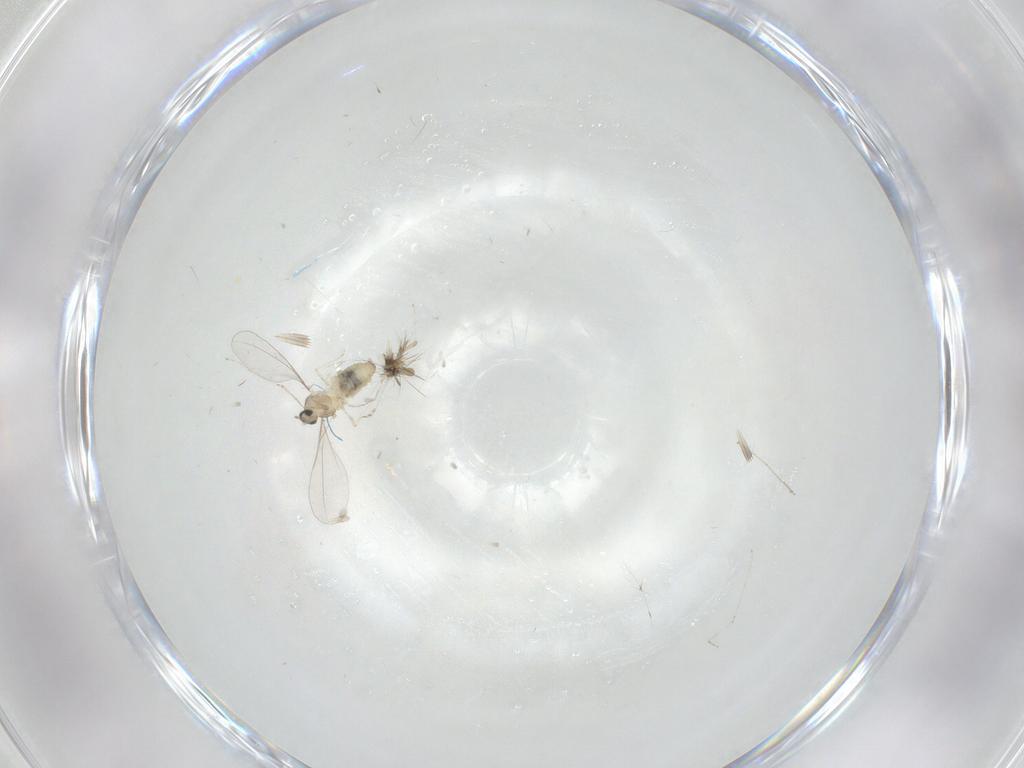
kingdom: Animalia
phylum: Arthropoda
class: Insecta
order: Diptera
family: Cecidomyiidae
